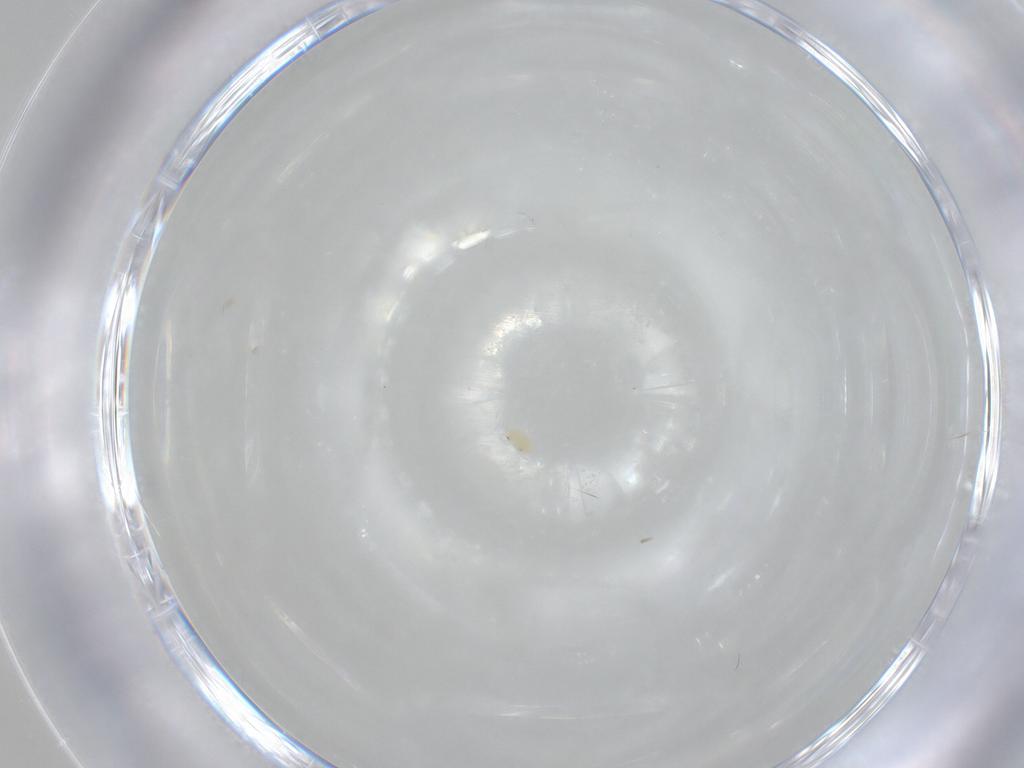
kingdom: Animalia
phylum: Arthropoda
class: Insecta
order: Lepidoptera
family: Lycaenidae
